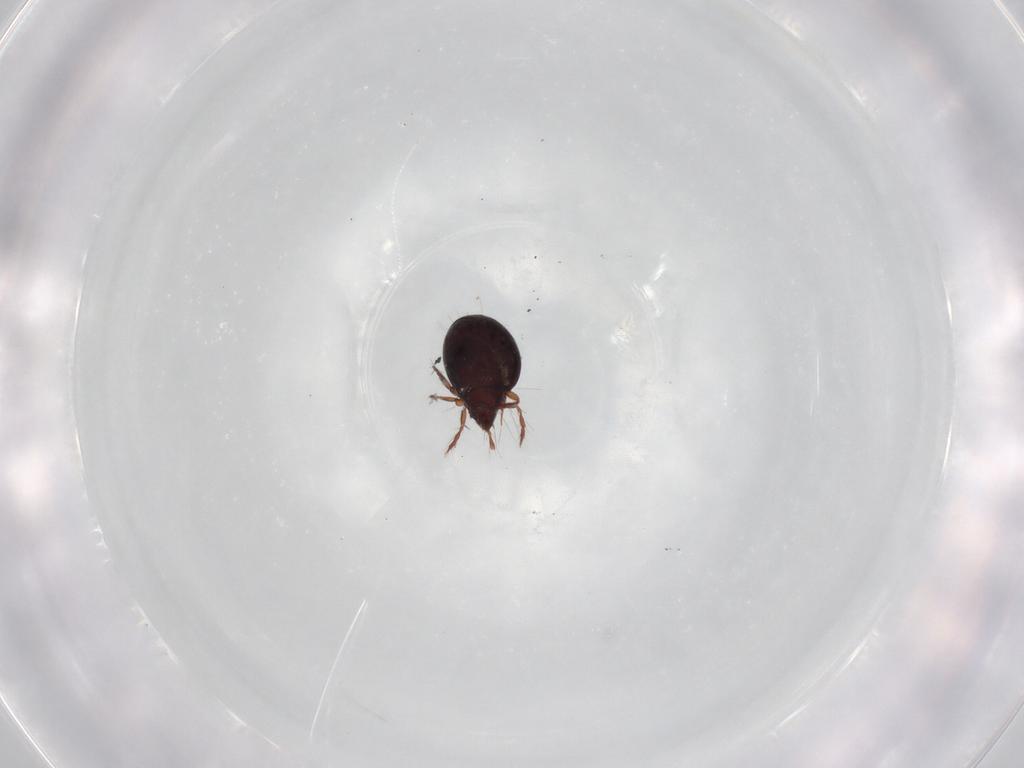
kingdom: Animalia
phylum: Arthropoda
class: Arachnida
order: Sarcoptiformes
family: Ceratoppiidae
